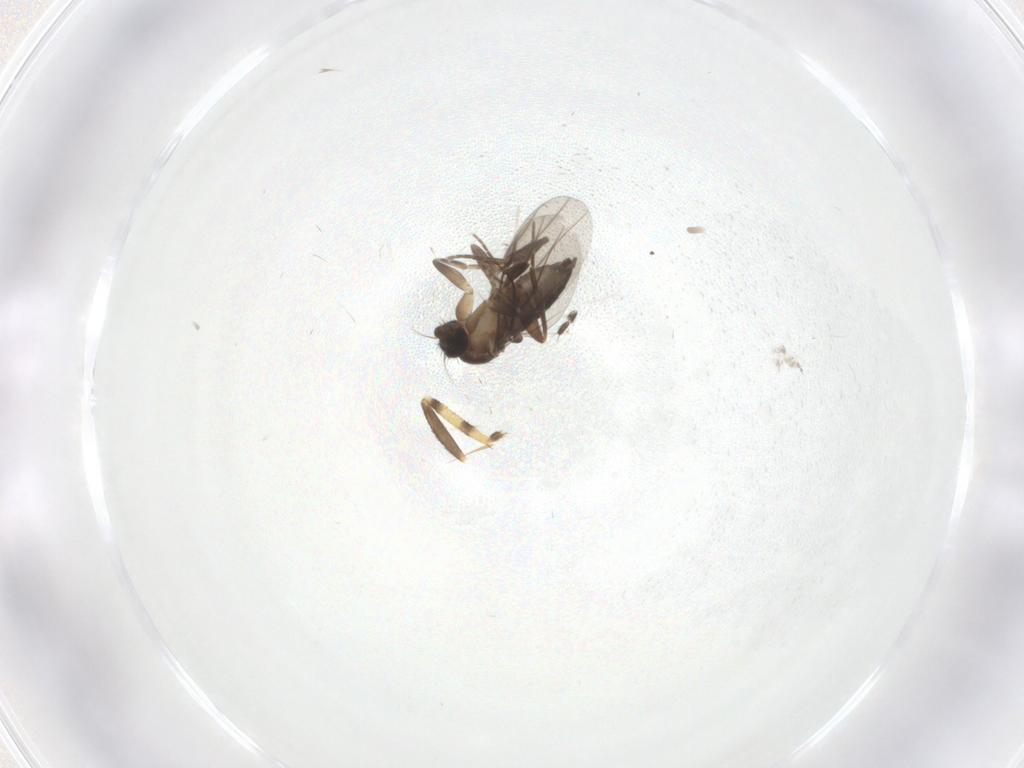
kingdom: Animalia
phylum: Arthropoda
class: Insecta
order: Diptera
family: Ceratopogonidae
